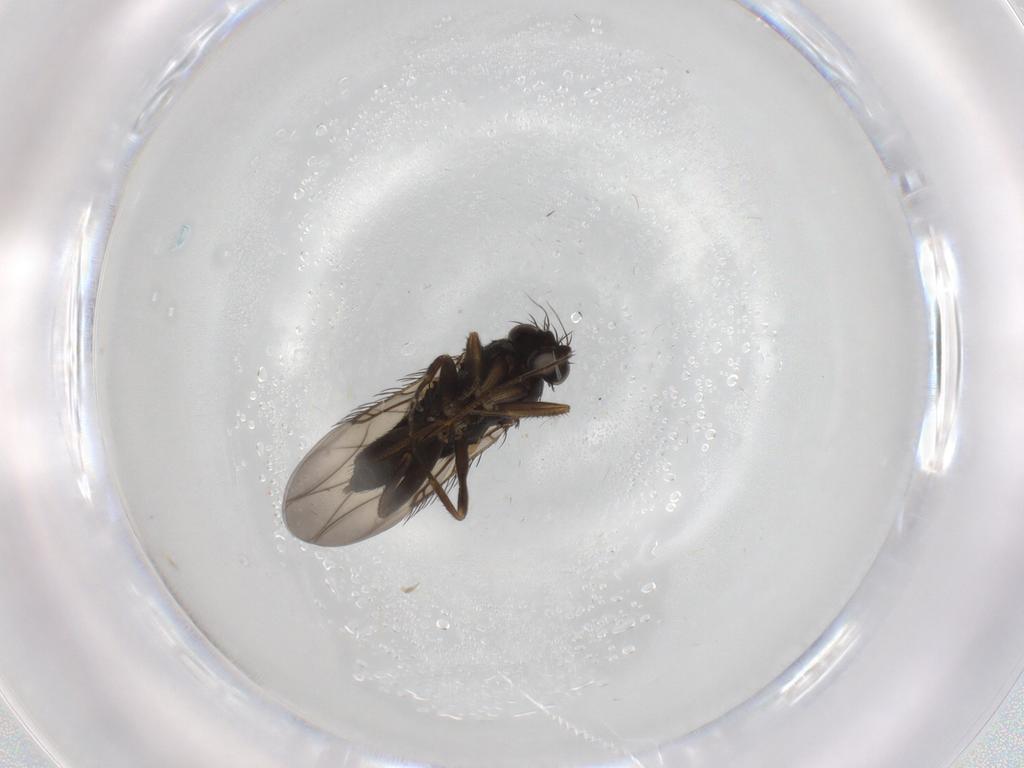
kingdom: Animalia
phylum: Arthropoda
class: Insecta
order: Diptera
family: Phoridae
